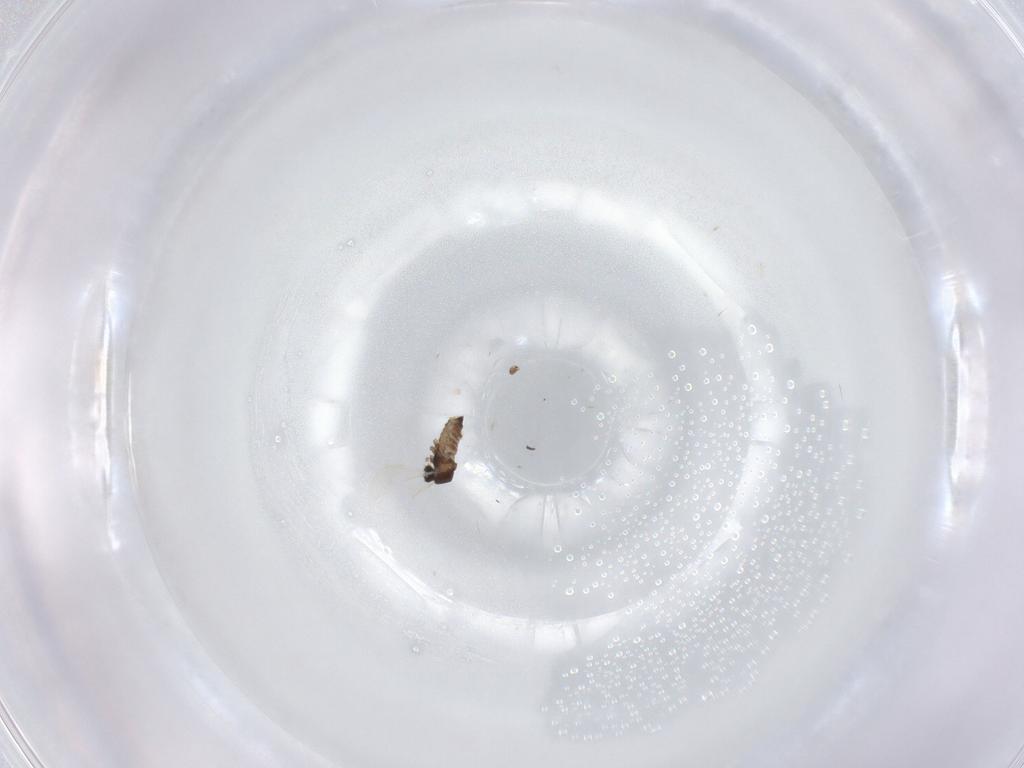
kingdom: Animalia
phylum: Arthropoda
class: Insecta
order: Diptera
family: Cecidomyiidae
